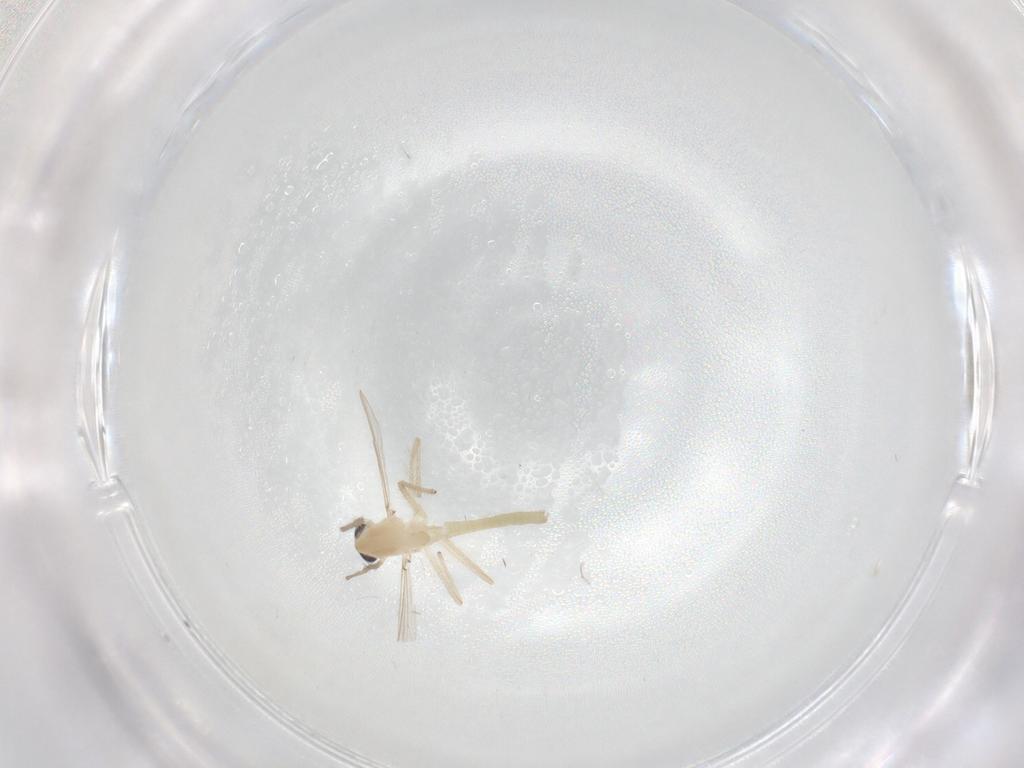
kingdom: Animalia
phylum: Arthropoda
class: Insecta
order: Diptera
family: Chironomidae
